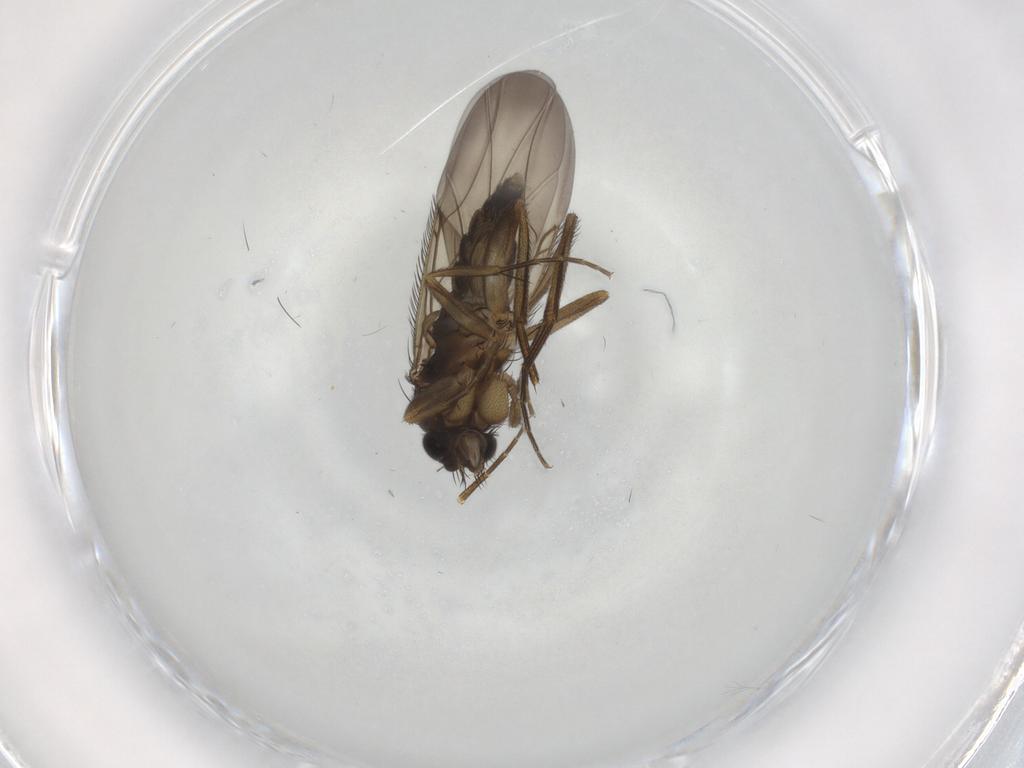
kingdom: Animalia
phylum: Arthropoda
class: Insecta
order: Diptera
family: Phoridae
